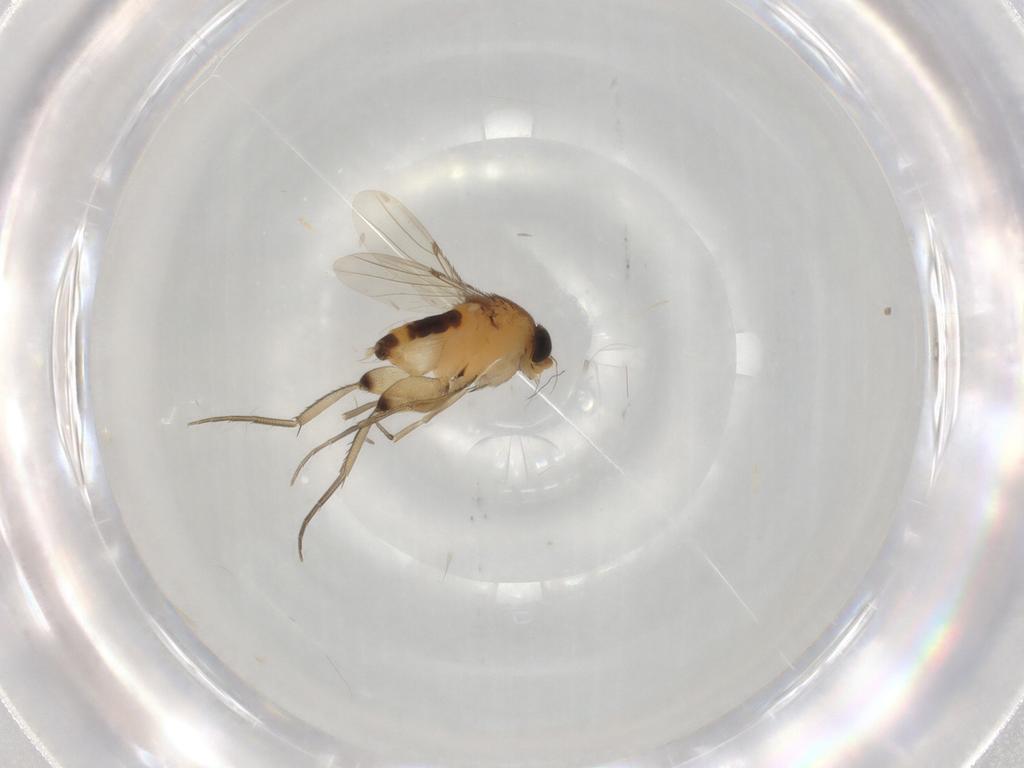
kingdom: Animalia
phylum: Arthropoda
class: Insecta
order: Diptera
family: Phoridae
